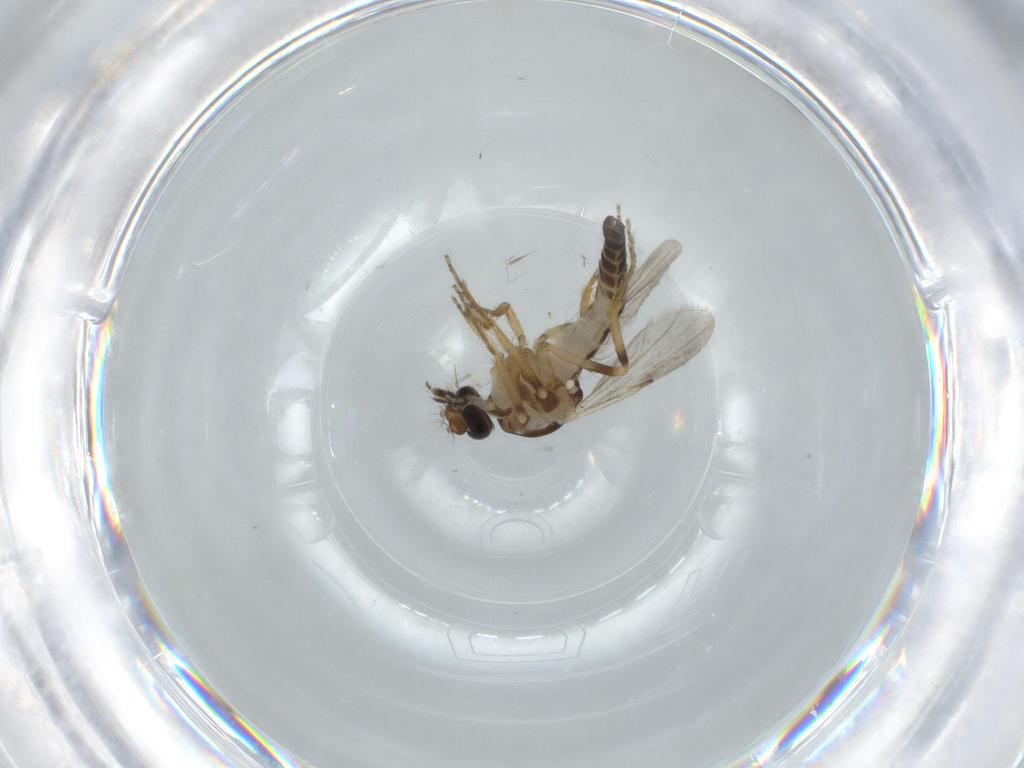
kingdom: Animalia
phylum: Arthropoda
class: Insecta
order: Diptera
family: Ceratopogonidae
